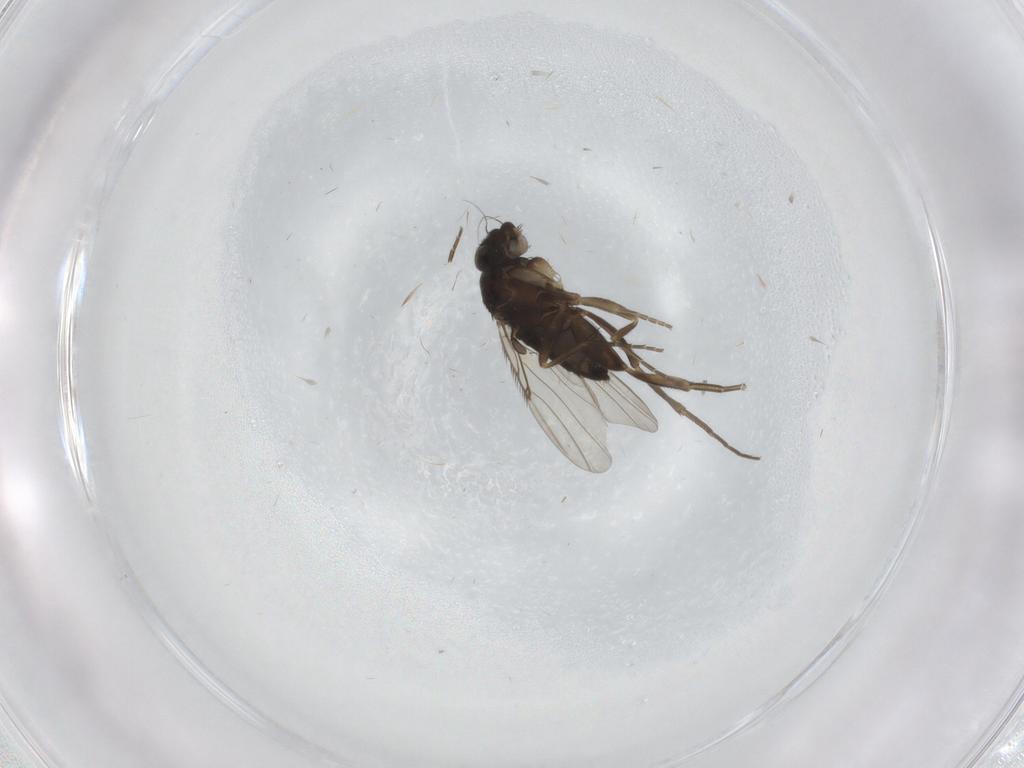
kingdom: Animalia
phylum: Arthropoda
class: Insecta
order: Diptera
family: Phoridae
